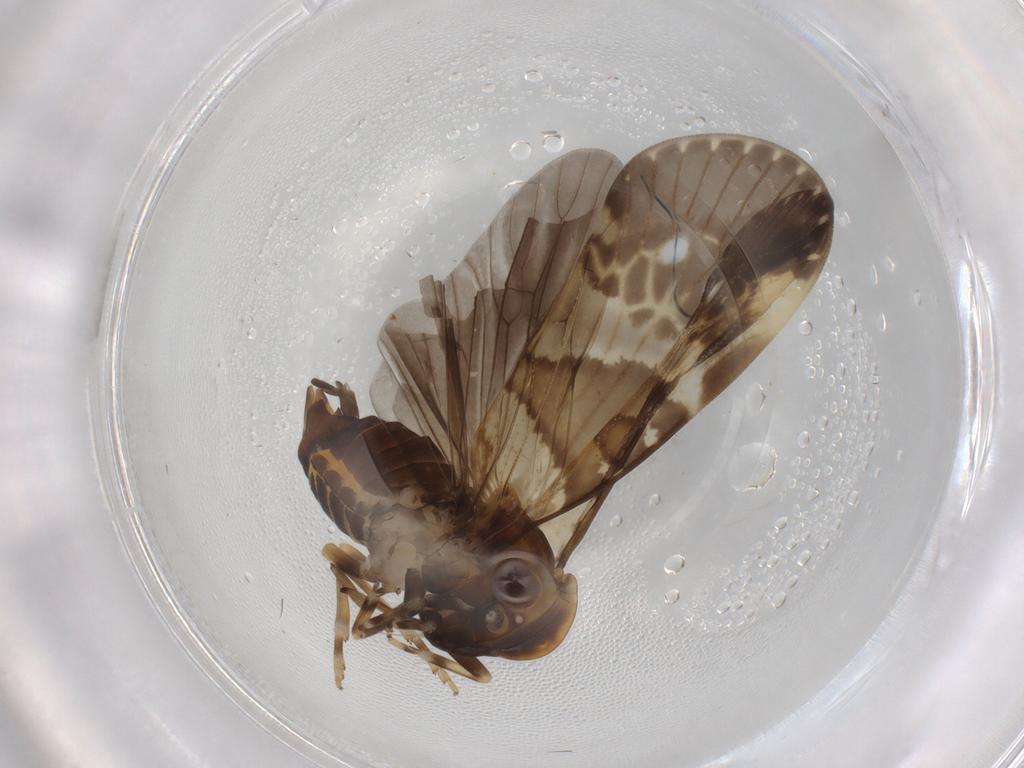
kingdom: Animalia
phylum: Arthropoda
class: Insecta
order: Hemiptera
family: Cixiidae
